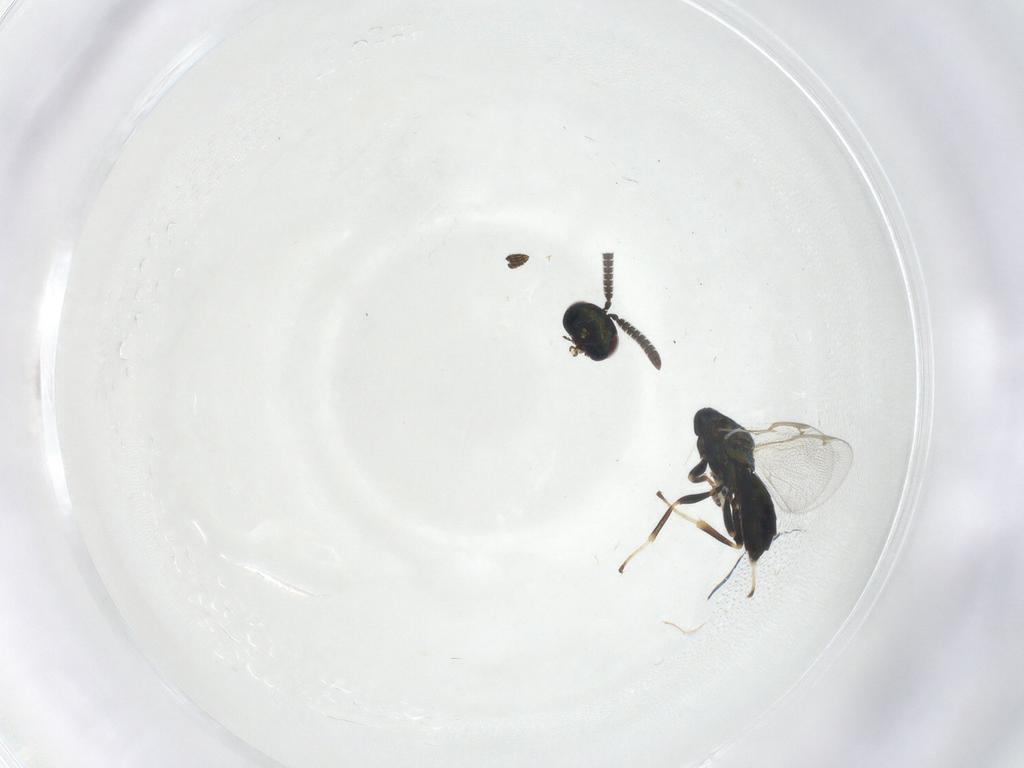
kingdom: Animalia
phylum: Arthropoda
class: Insecta
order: Hymenoptera
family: Torymidae
